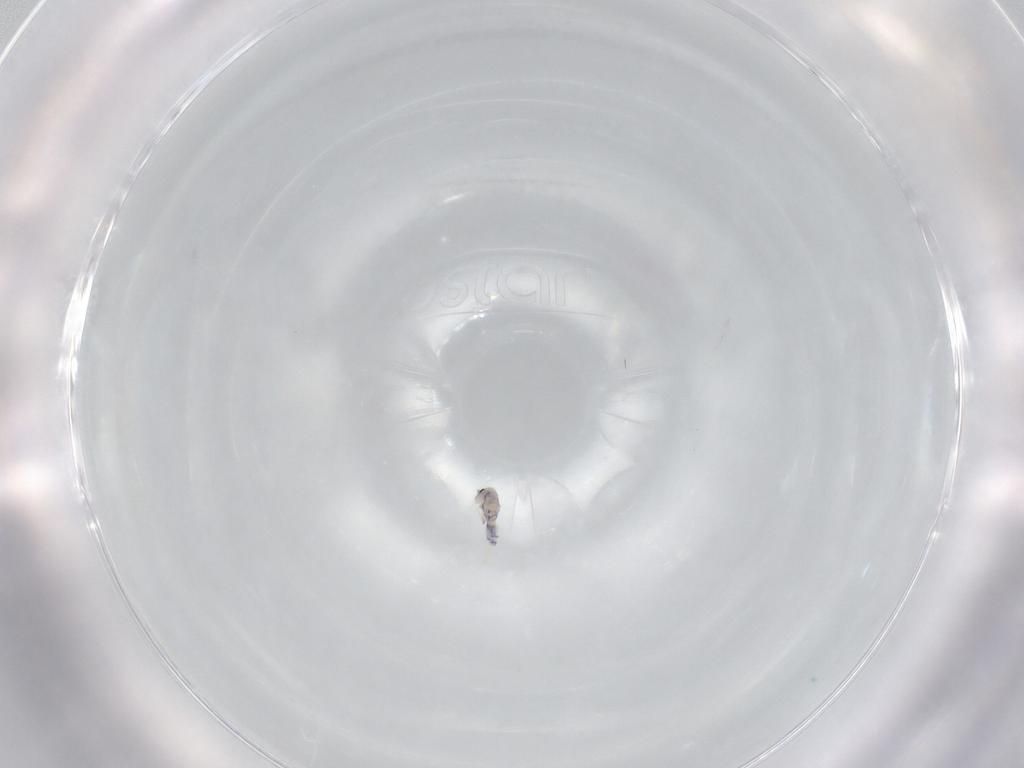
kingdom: Animalia
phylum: Arthropoda
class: Collembola
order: Entomobryomorpha
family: Entomobryidae
